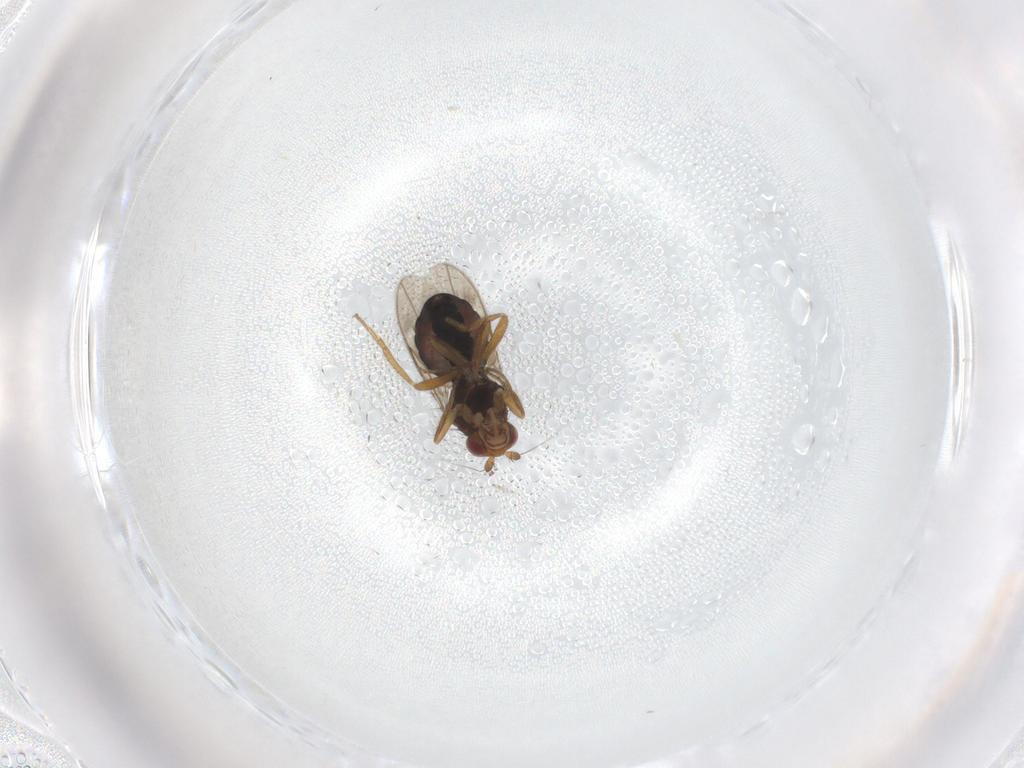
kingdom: Animalia
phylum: Arthropoda
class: Insecta
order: Diptera
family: Sphaeroceridae
